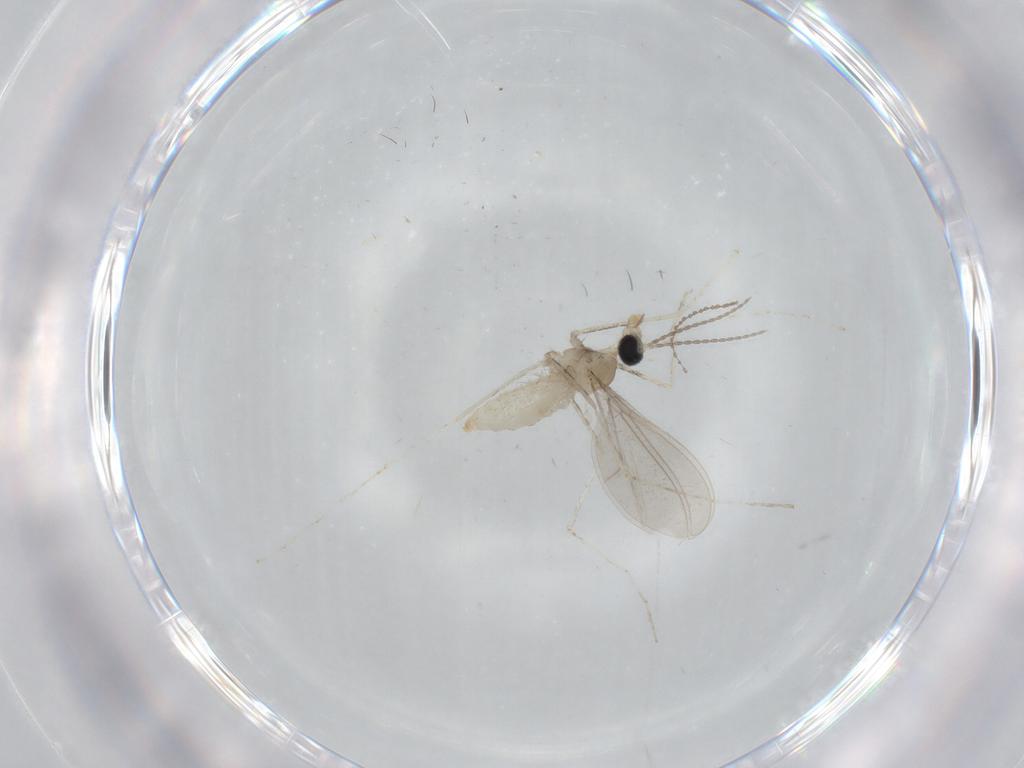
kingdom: Animalia
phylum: Arthropoda
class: Insecta
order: Diptera
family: Cecidomyiidae
